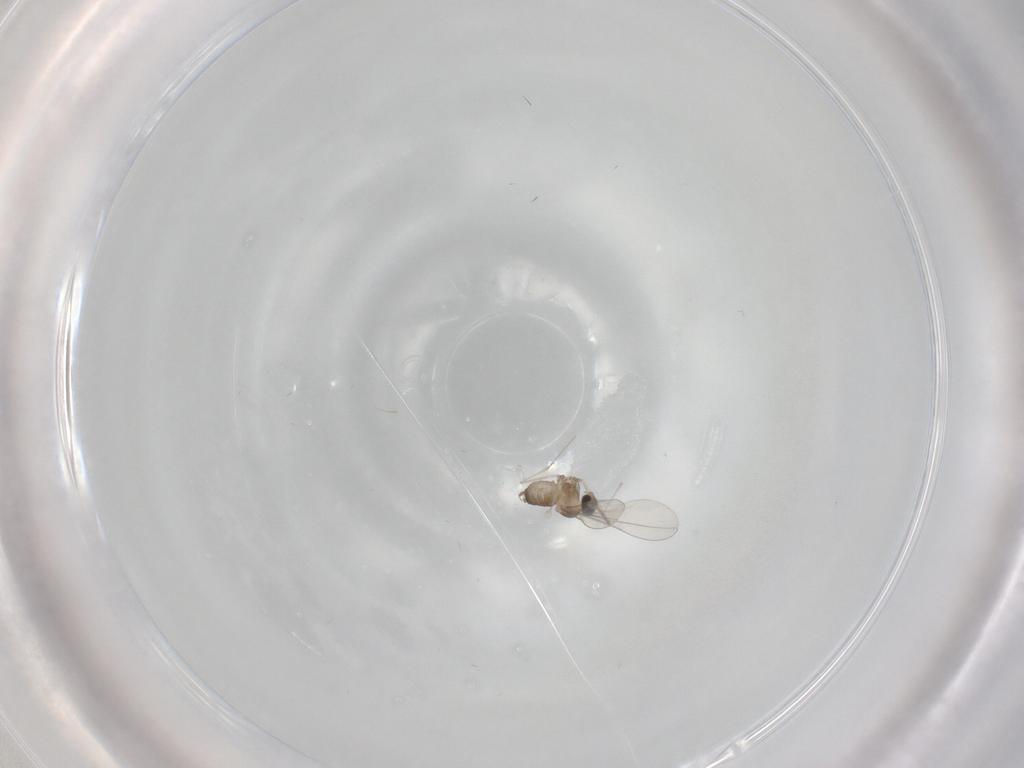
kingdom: Animalia
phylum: Arthropoda
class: Insecta
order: Diptera
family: Cecidomyiidae
